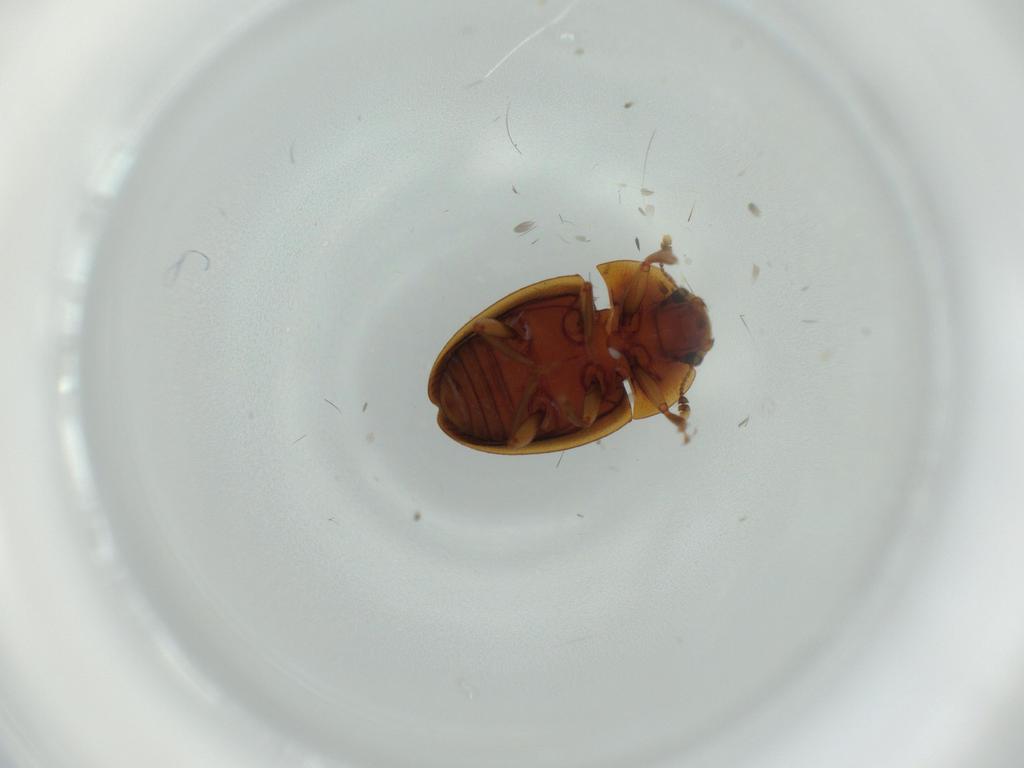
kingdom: Animalia
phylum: Arthropoda
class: Insecta
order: Coleoptera
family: Nitidulidae
